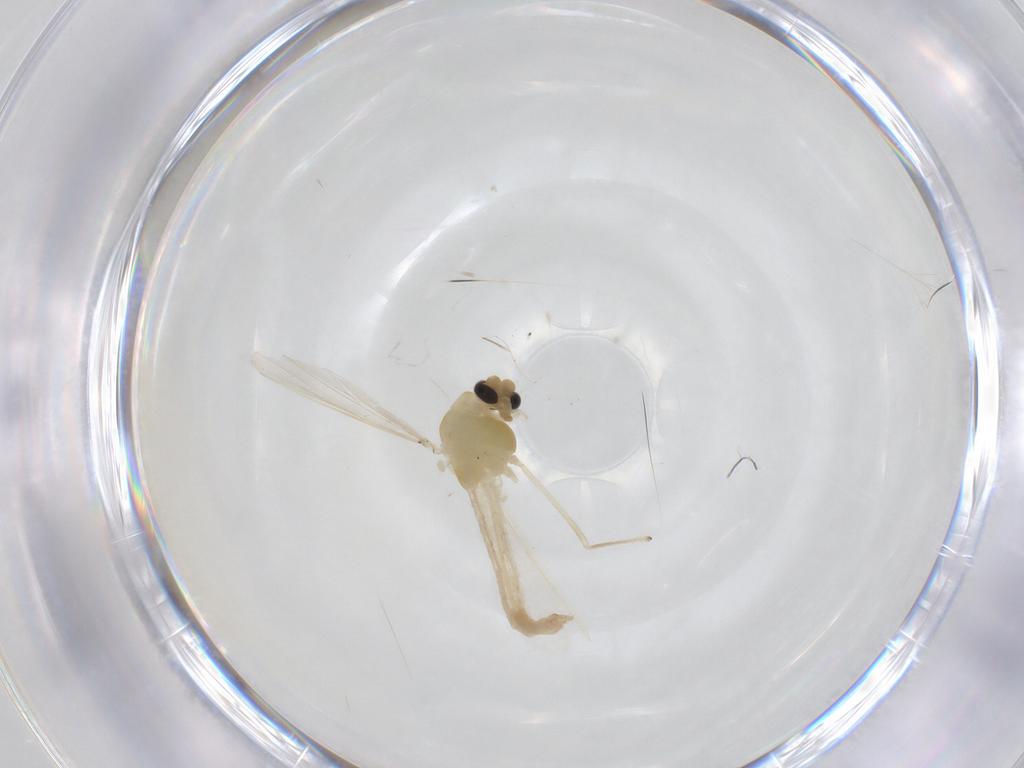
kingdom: Animalia
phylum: Arthropoda
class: Insecta
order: Diptera
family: Chironomidae
